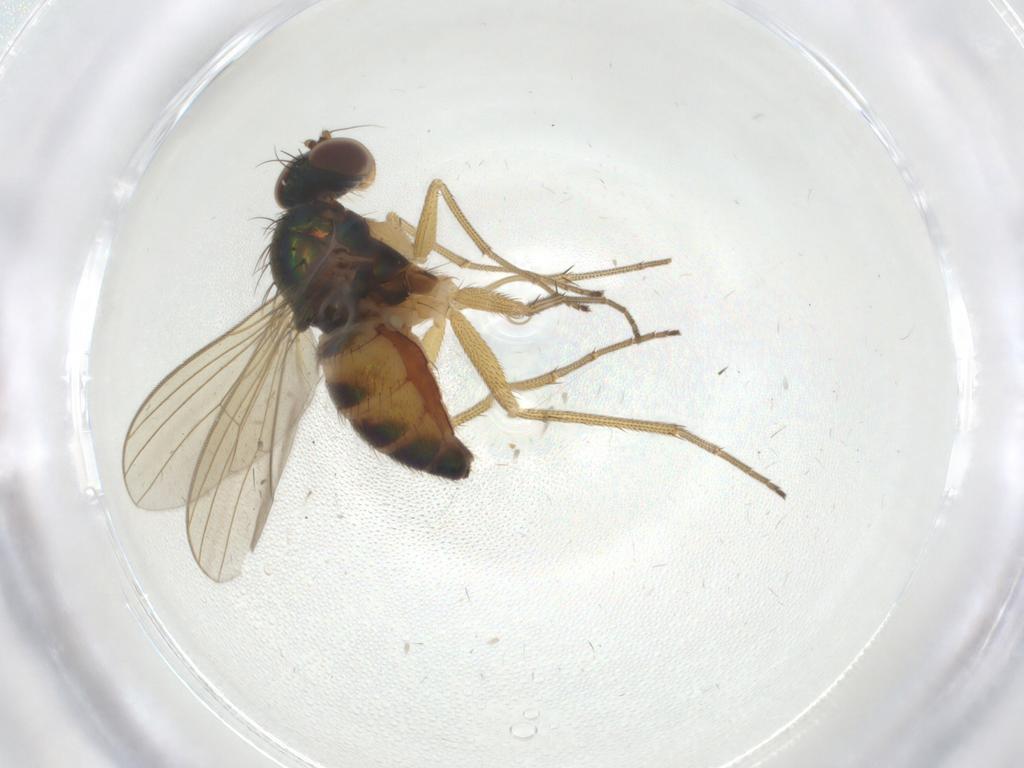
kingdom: Animalia
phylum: Arthropoda
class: Insecta
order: Diptera
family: Dolichopodidae
